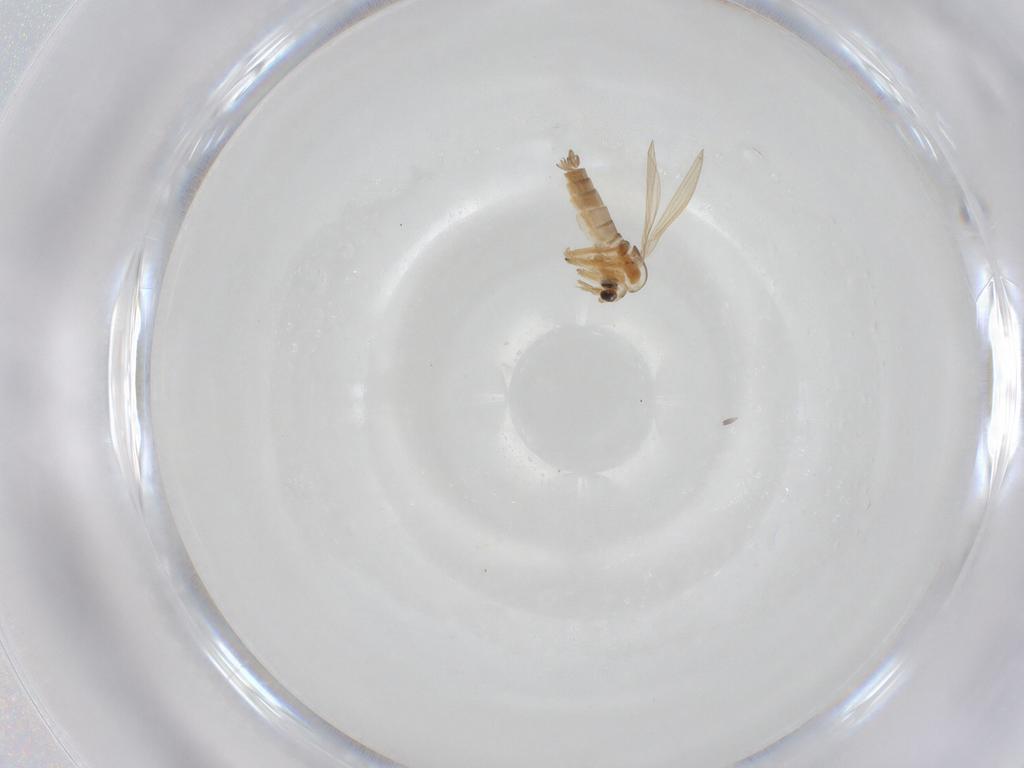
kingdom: Animalia
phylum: Arthropoda
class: Insecta
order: Diptera
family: Psychodidae
